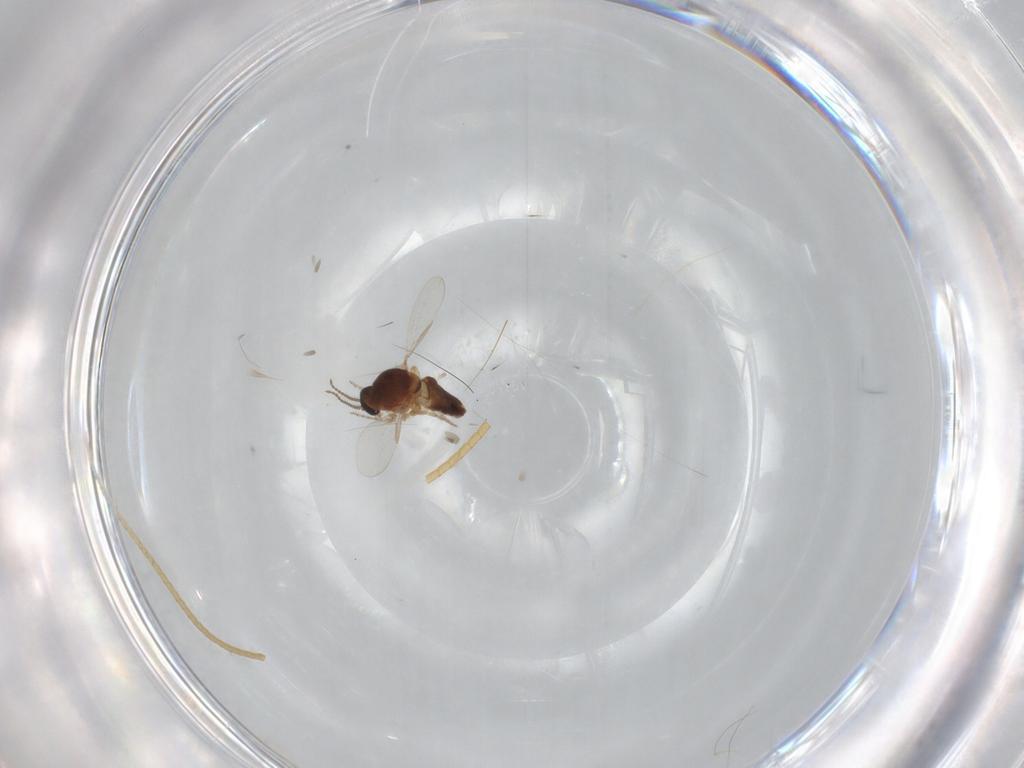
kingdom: Animalia
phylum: Arthropoda
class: Insecta
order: Diptera
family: Ceratopogonidae
